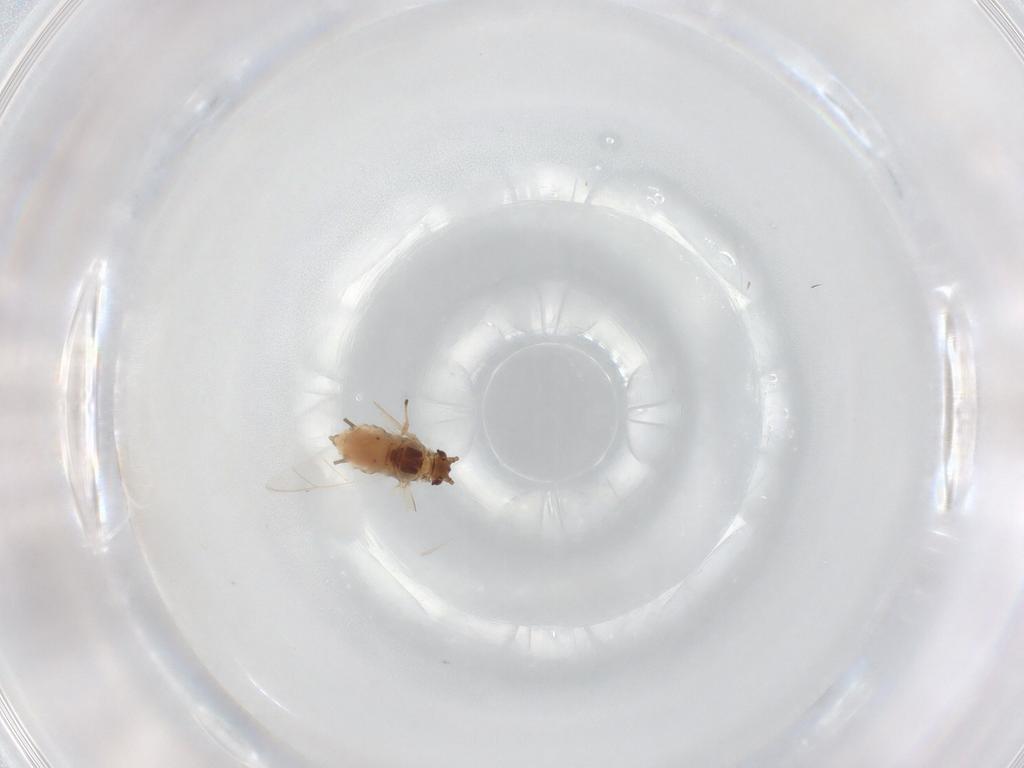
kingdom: Animalia
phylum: Arthropoda
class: Insecta
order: Hemiptera
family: Aphididae
